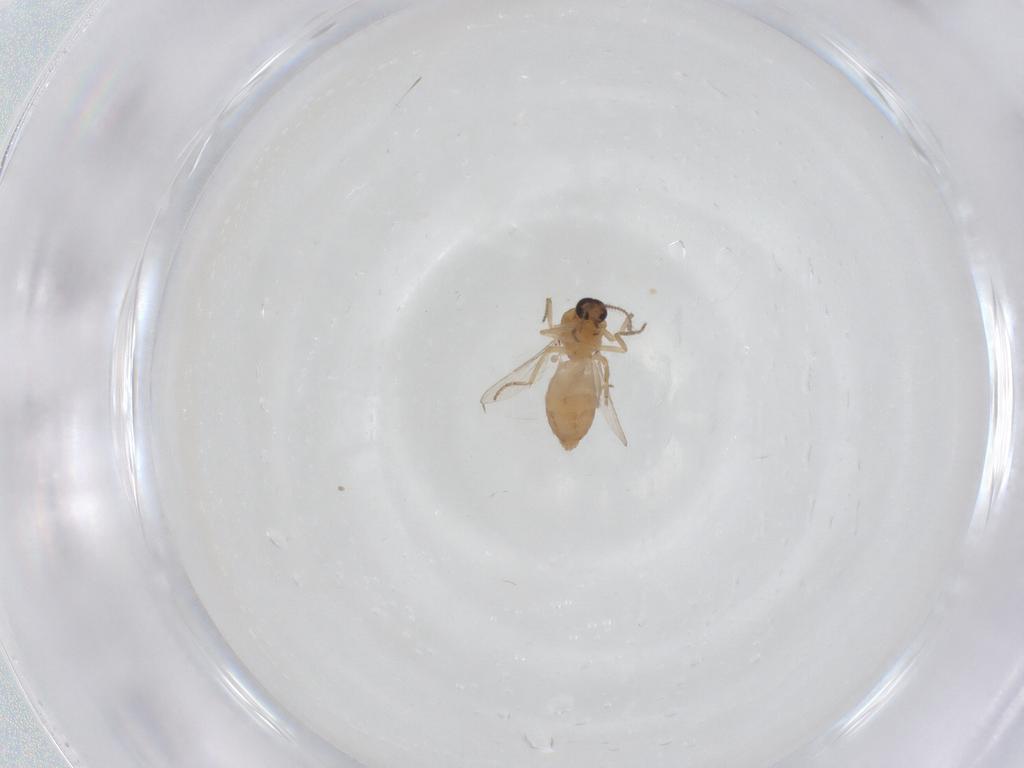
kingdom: Animalia
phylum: Arthropoda
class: Insecta
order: Diptera
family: Ceratopogonidae
